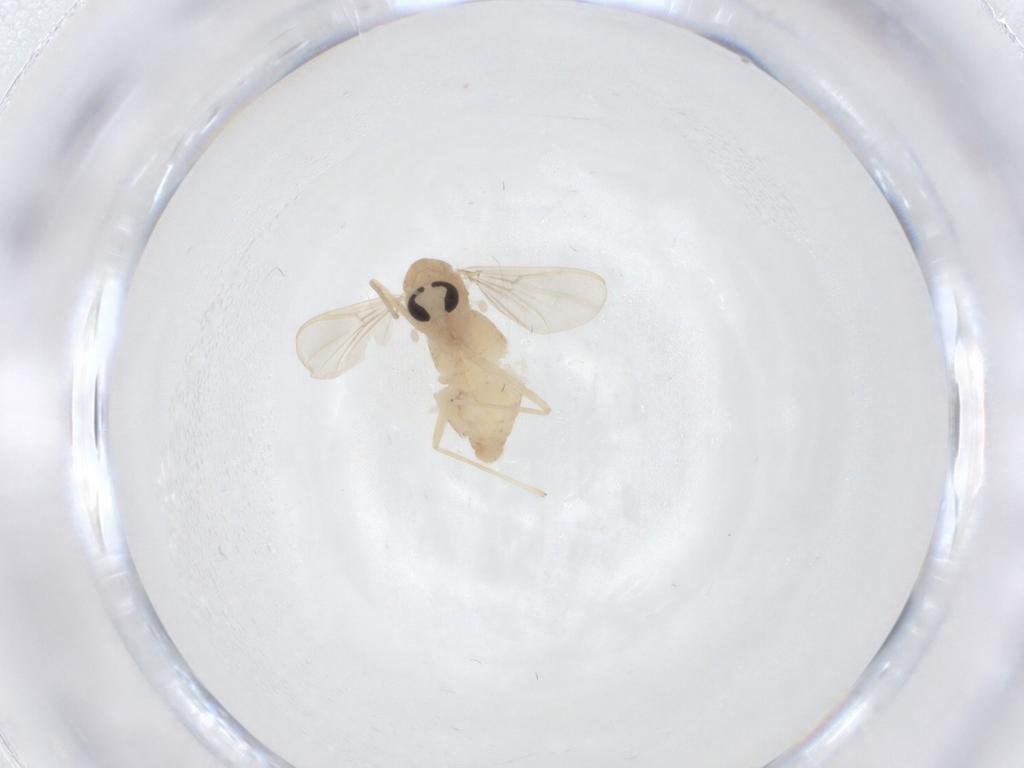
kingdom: Animalia
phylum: Arthropoda
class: Insecta
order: Diptera
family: Chironomidae
